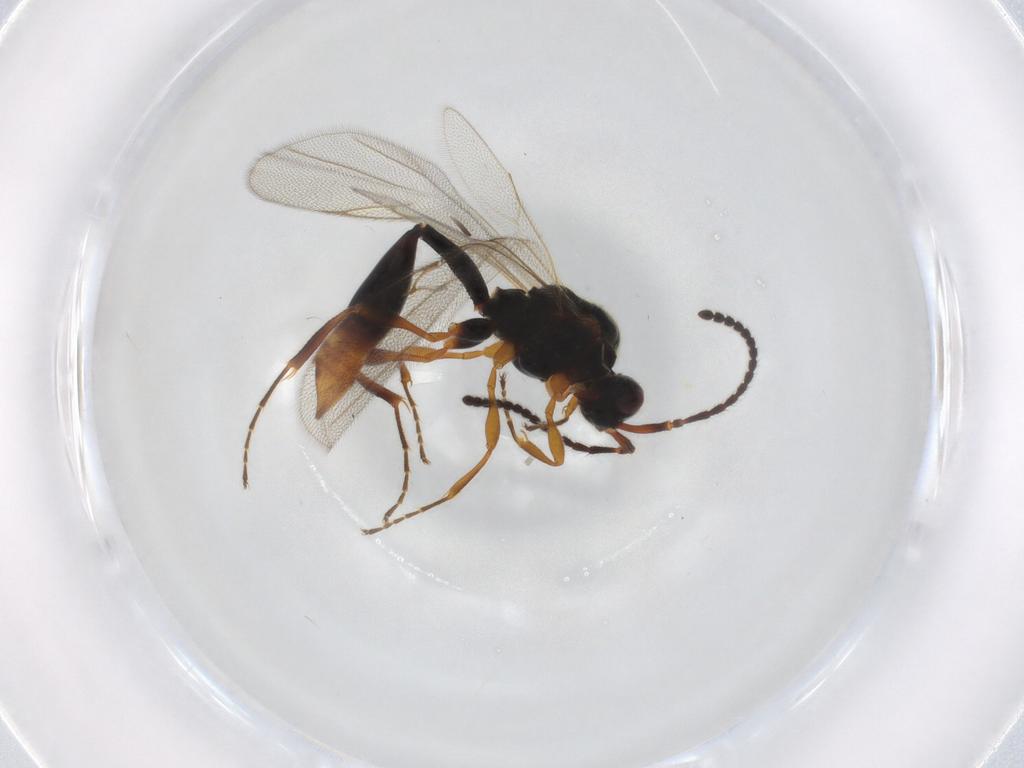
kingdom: Animalia
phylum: Arthropoda
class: Insecta
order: Hymenoptera
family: Diapriidae
